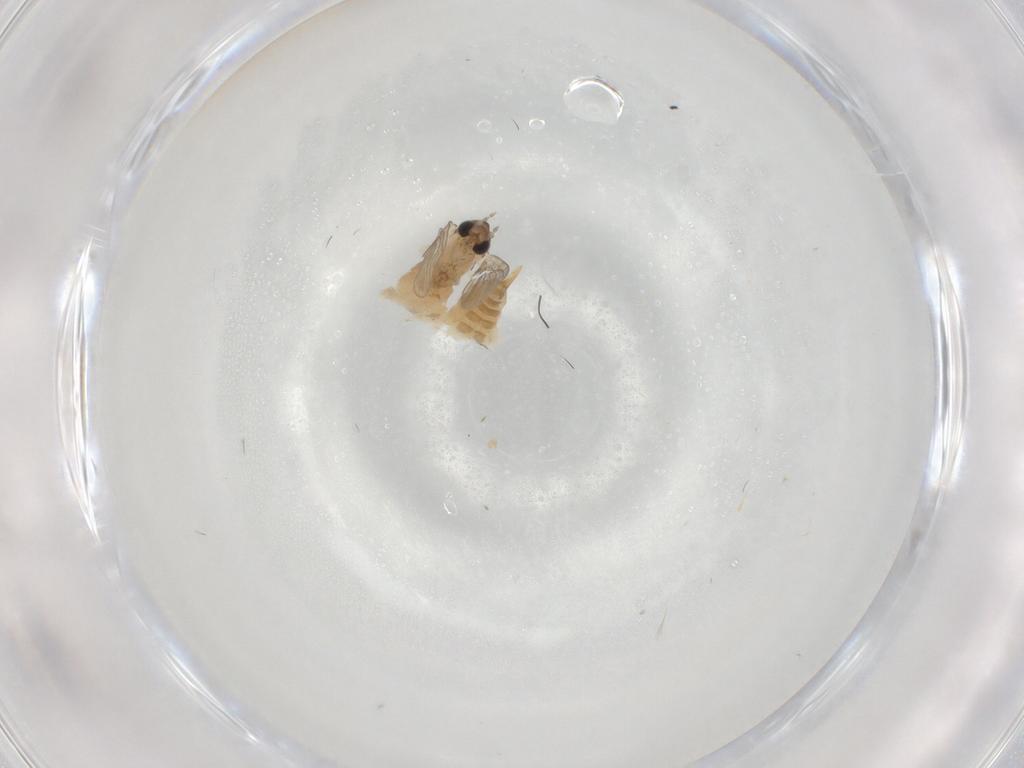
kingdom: Animalia
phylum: Arthropoda
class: Insecta
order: Diptera
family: Psychodidae
